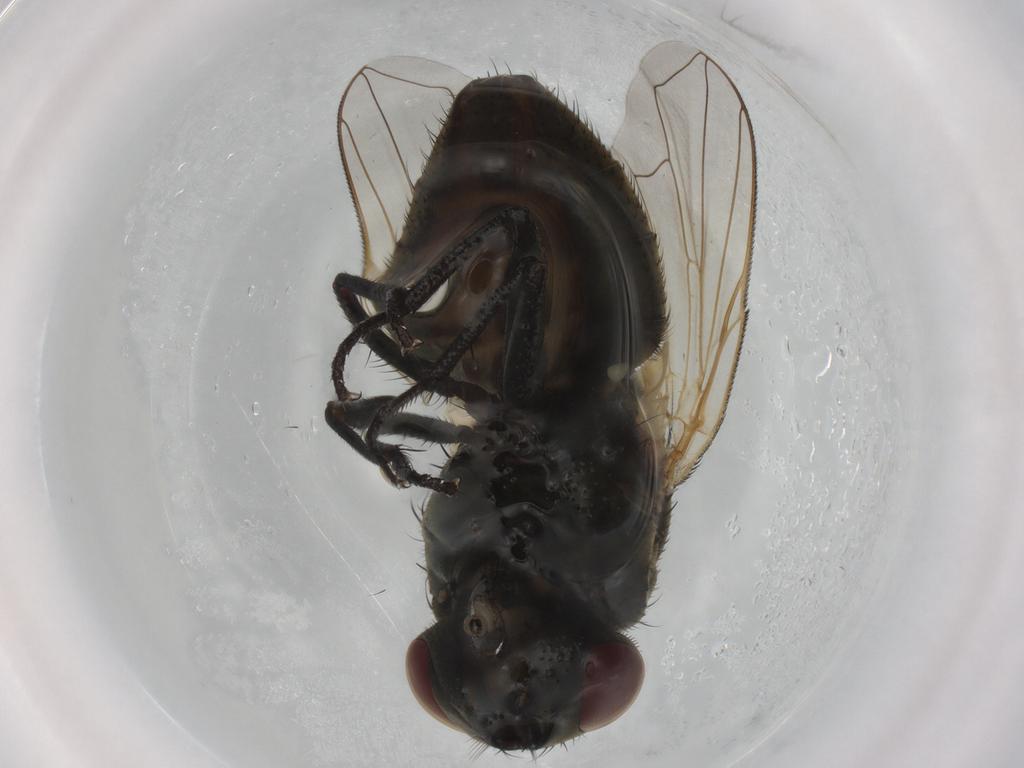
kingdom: Animalia
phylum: Arthropoda
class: Insecta
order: Diptera
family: Muscidae
